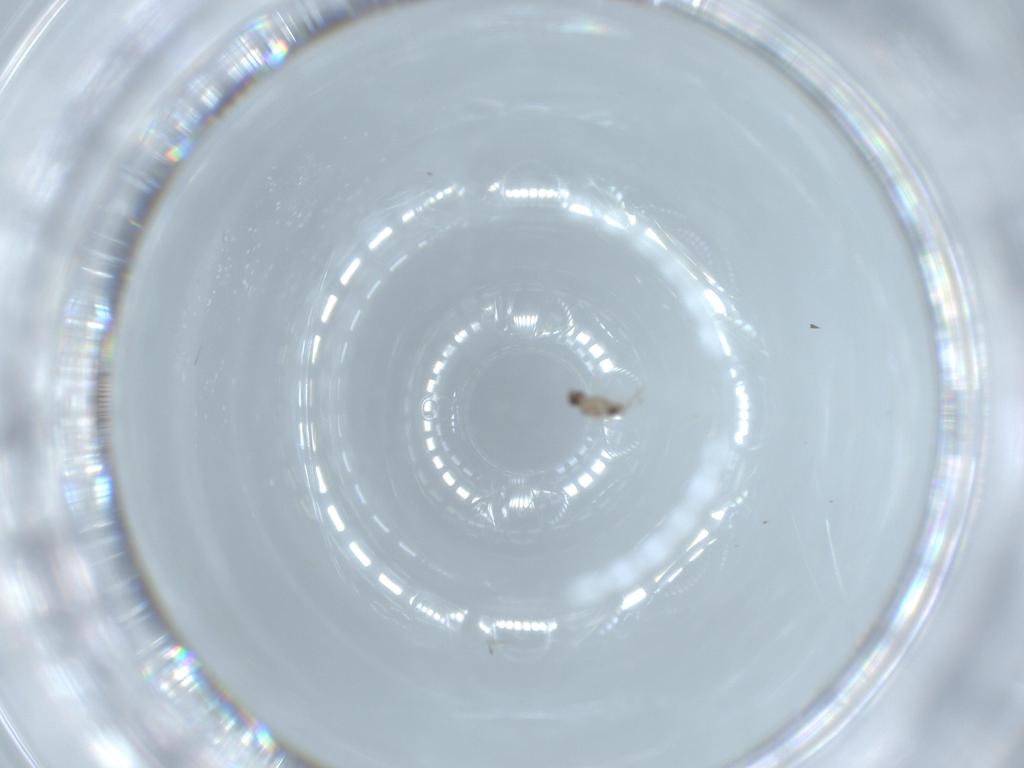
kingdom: Animalia
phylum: Arthropoda
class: Insecta
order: Diptera
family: Cecidomyiidae
